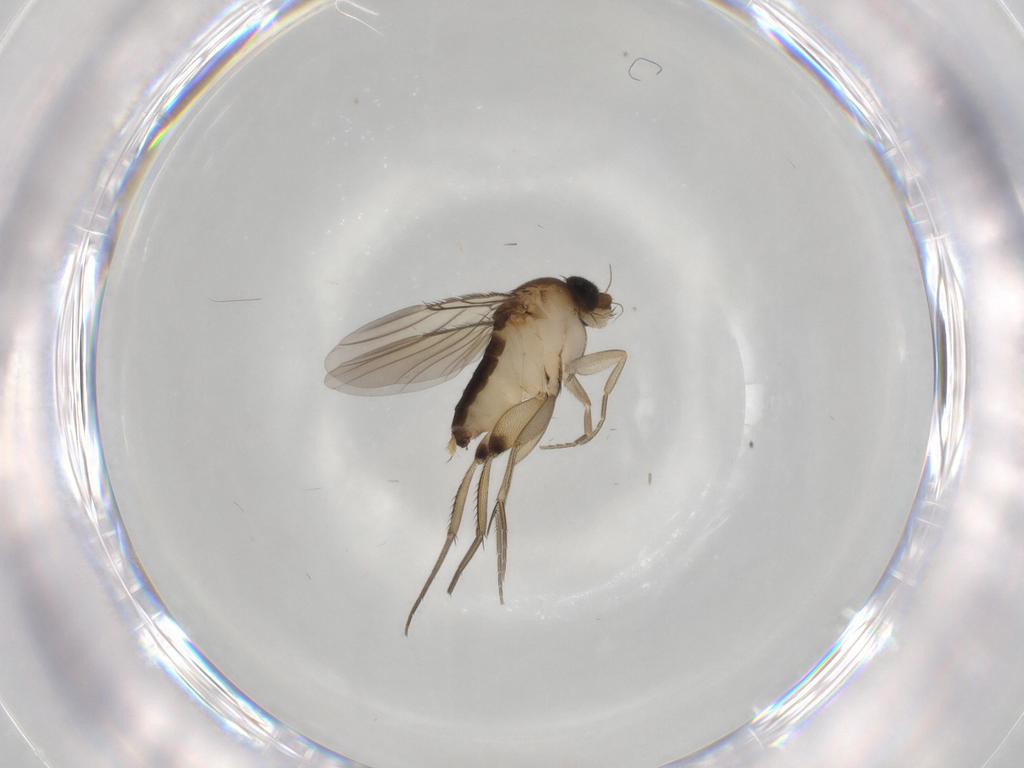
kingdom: Animalia
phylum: Arthropoda
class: Insecta
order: Diptera
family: Phoridae
